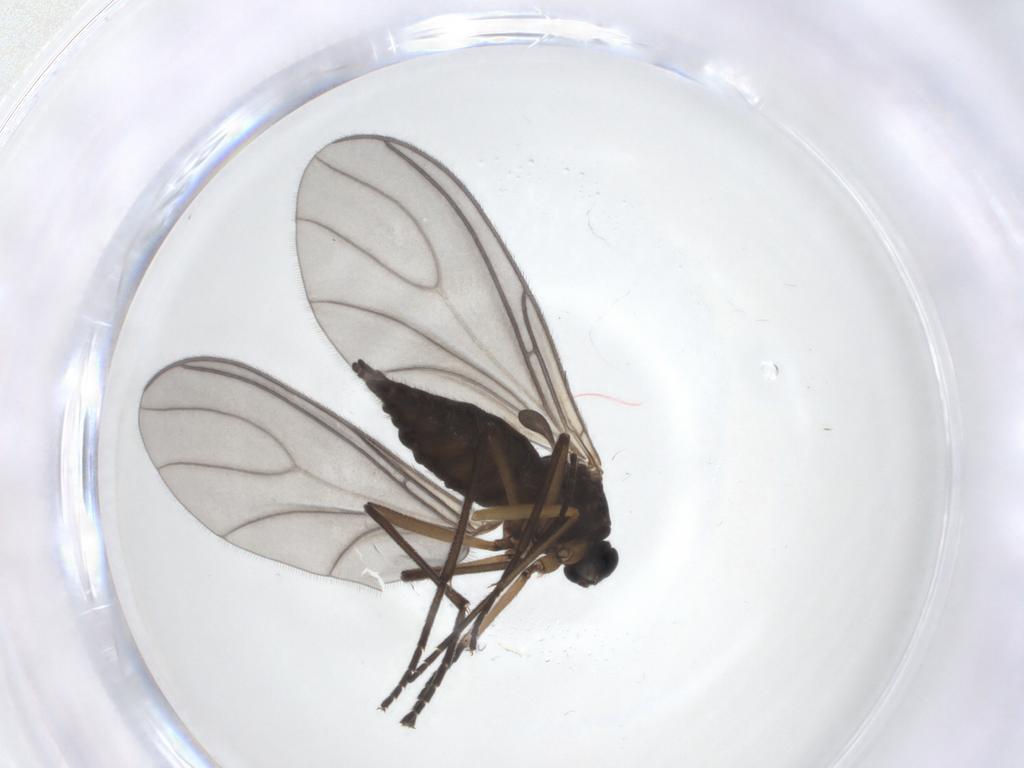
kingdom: Animalia
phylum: Arthropoda
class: Insecta
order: Diptera
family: Sciaridae
